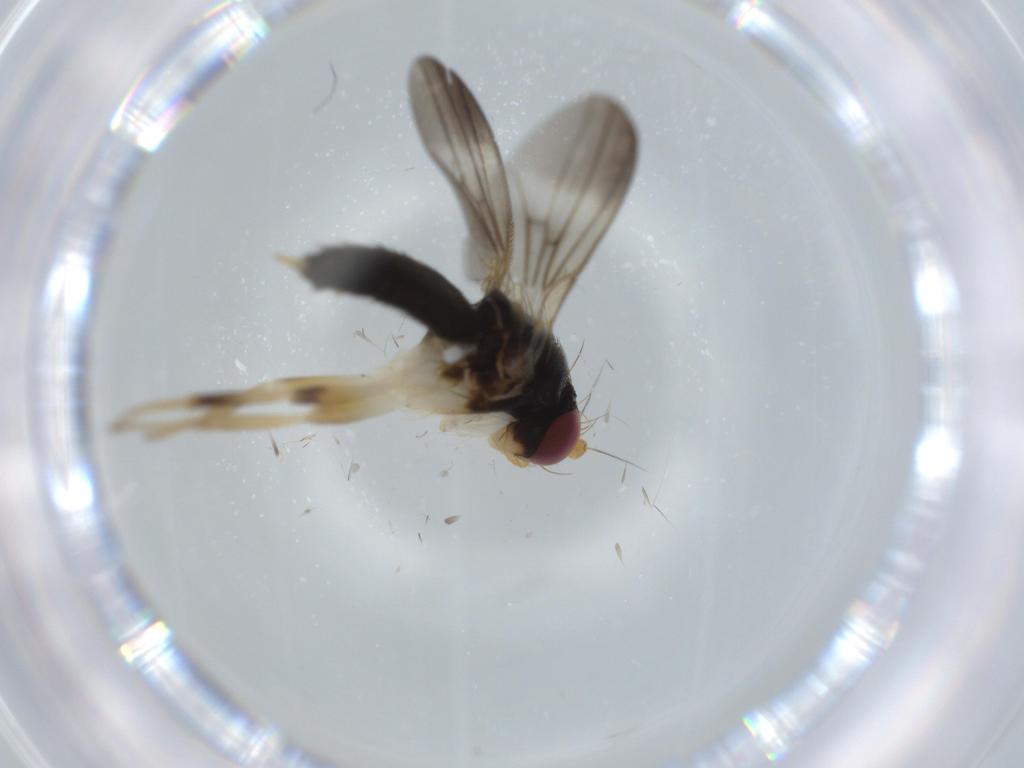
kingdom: Animalia
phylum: Arthropoda
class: Insecta
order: Diptera
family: Clusiidae
